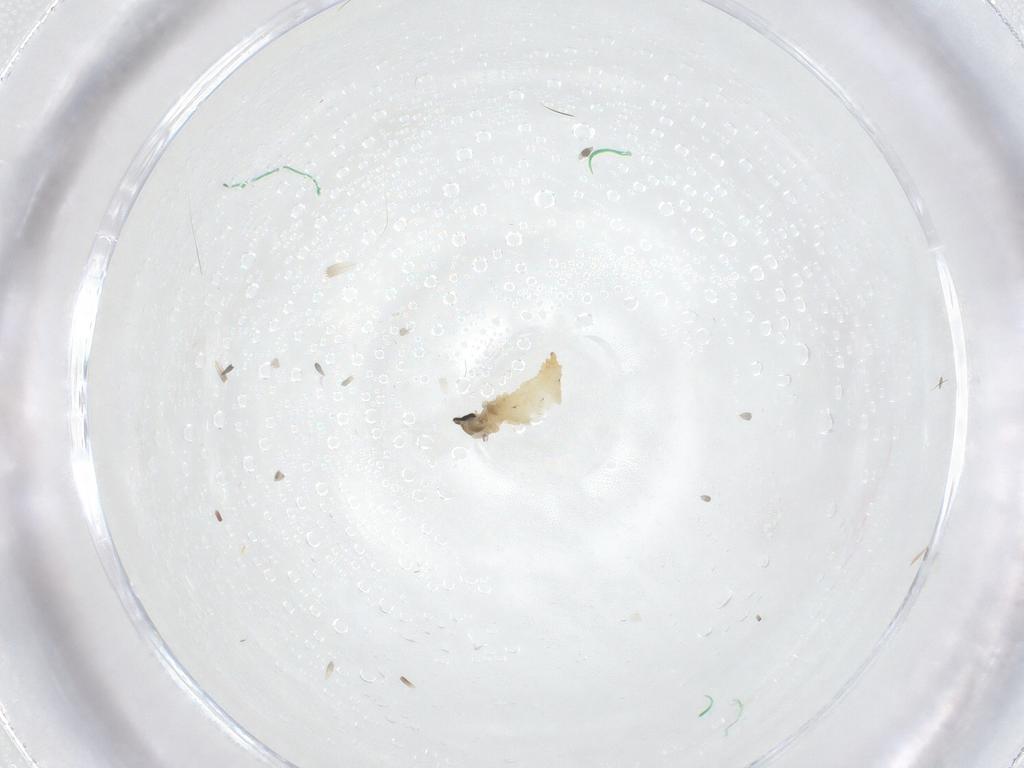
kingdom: Animalia
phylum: Arthropoda
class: Insecta
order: Diptera
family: Cecidomyiidae
